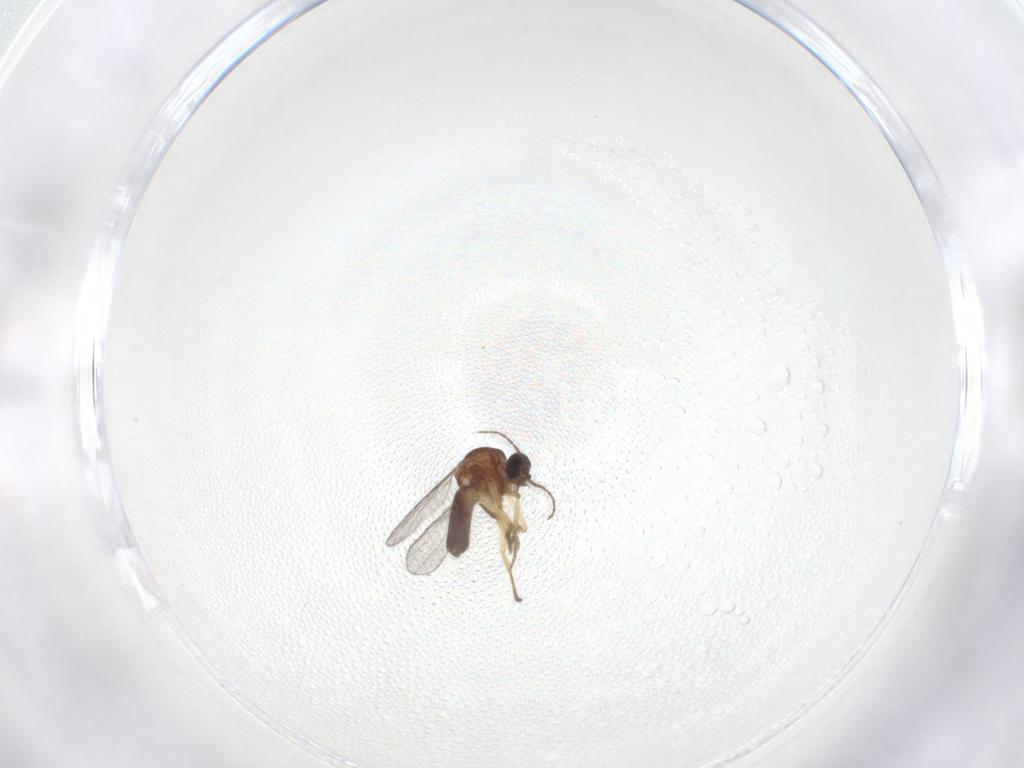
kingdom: Animalia
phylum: Arthropoda
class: Insecta
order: Diptera
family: Ceratopogonidae
